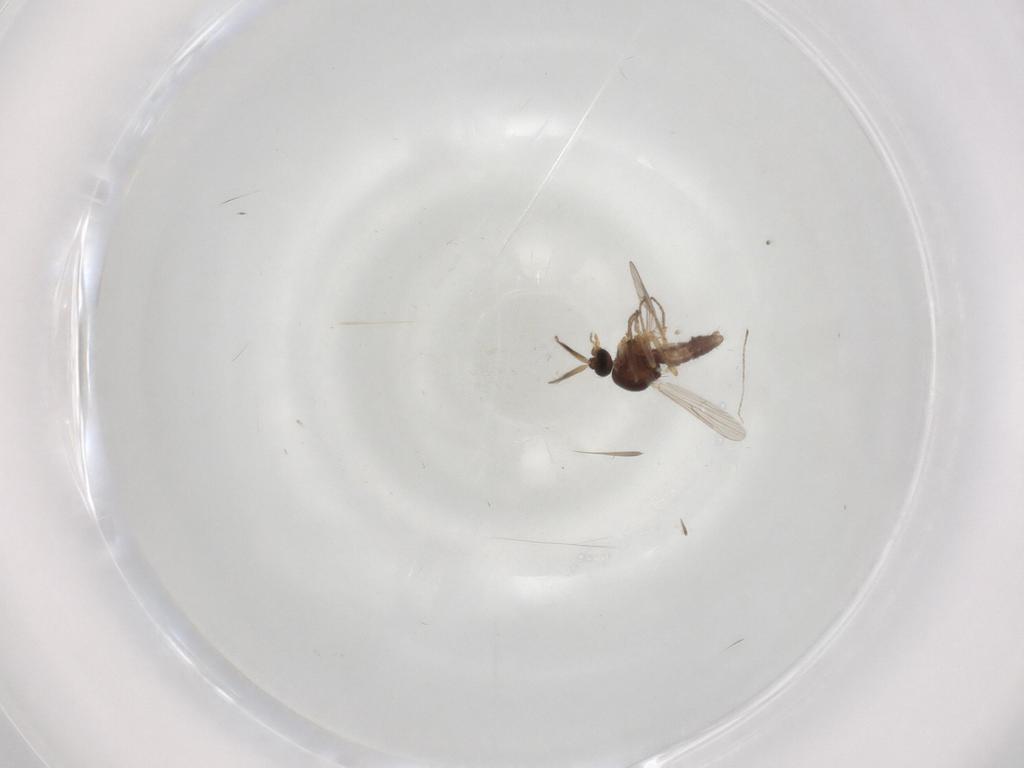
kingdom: Animalia
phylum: Arthropoda
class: Insecta
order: Diptera
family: Ceratopogonidae
